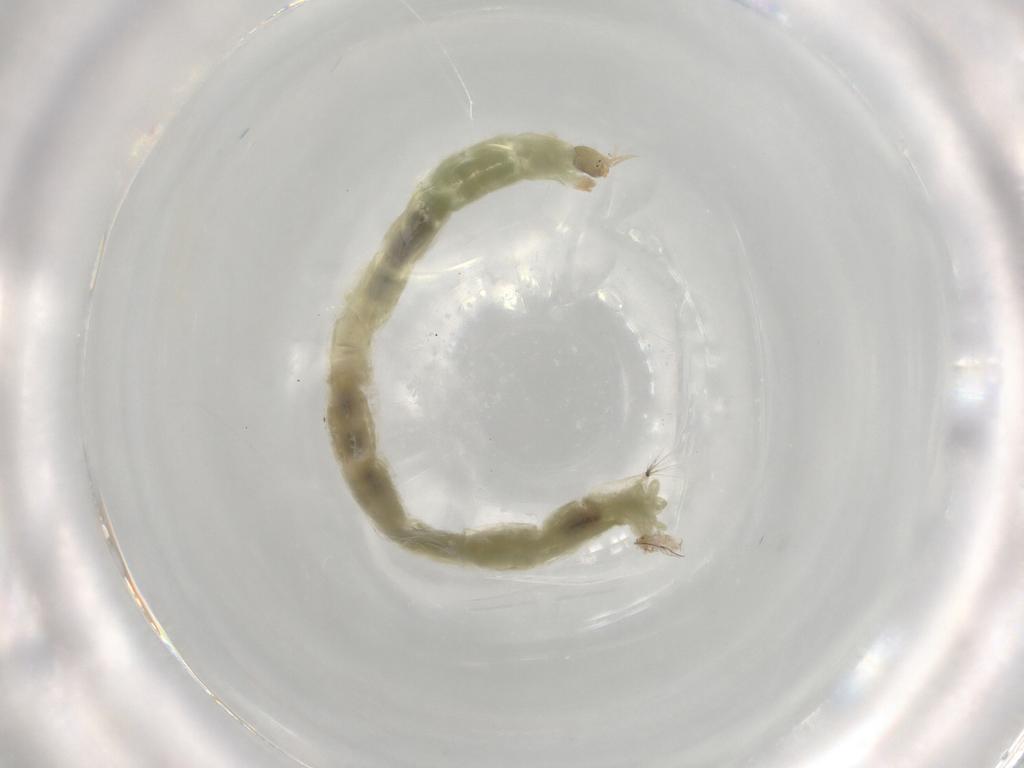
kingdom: Animalia
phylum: Arthropoda
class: Insecta
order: Diptera
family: Chironomidae
